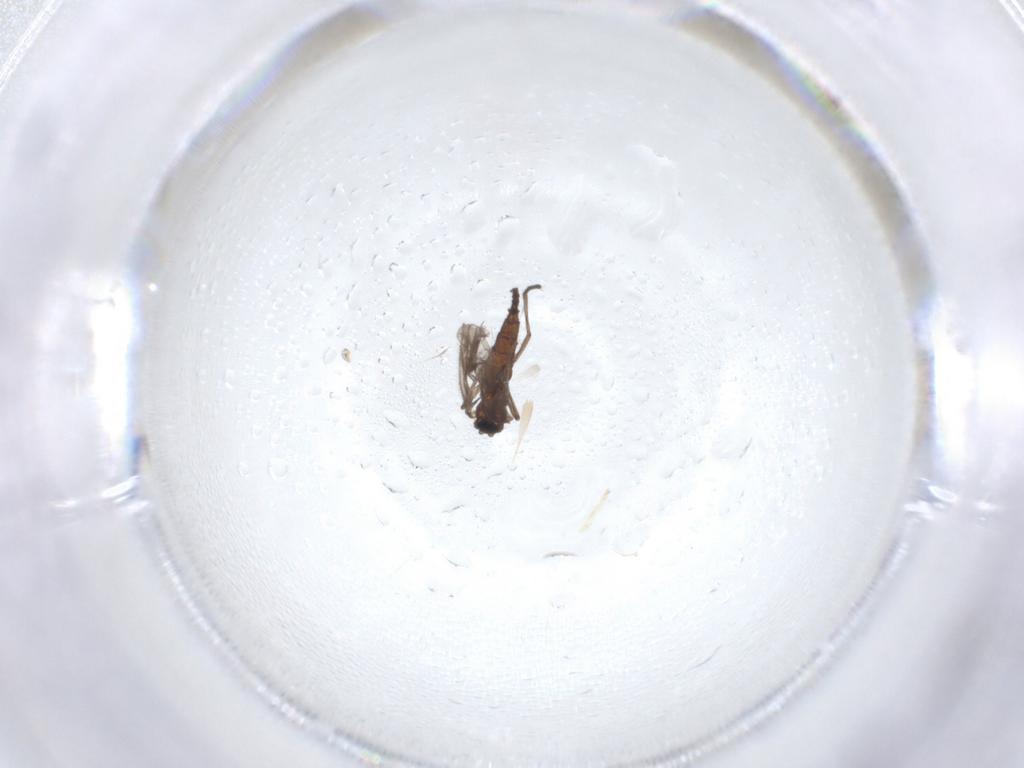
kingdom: Animalia
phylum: Arthropoda
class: Insecta
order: Diptera
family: Sciaridae
